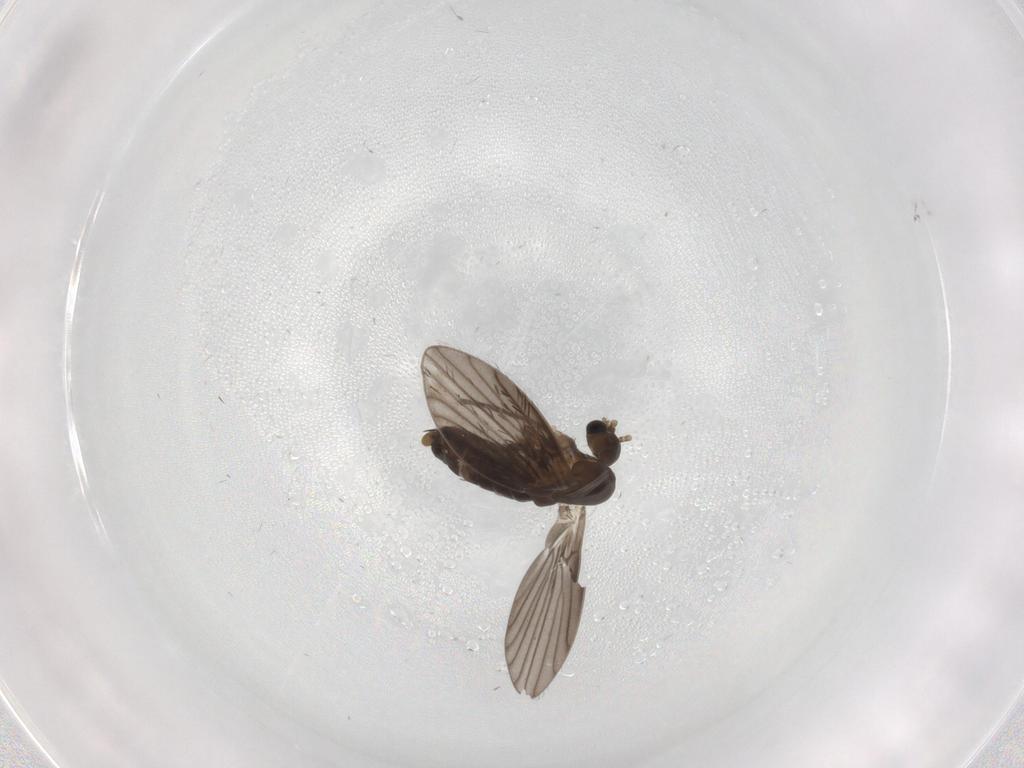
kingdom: Animalia
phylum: Arthropoda
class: Insecta
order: Diptera
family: Cecidomyiidae
